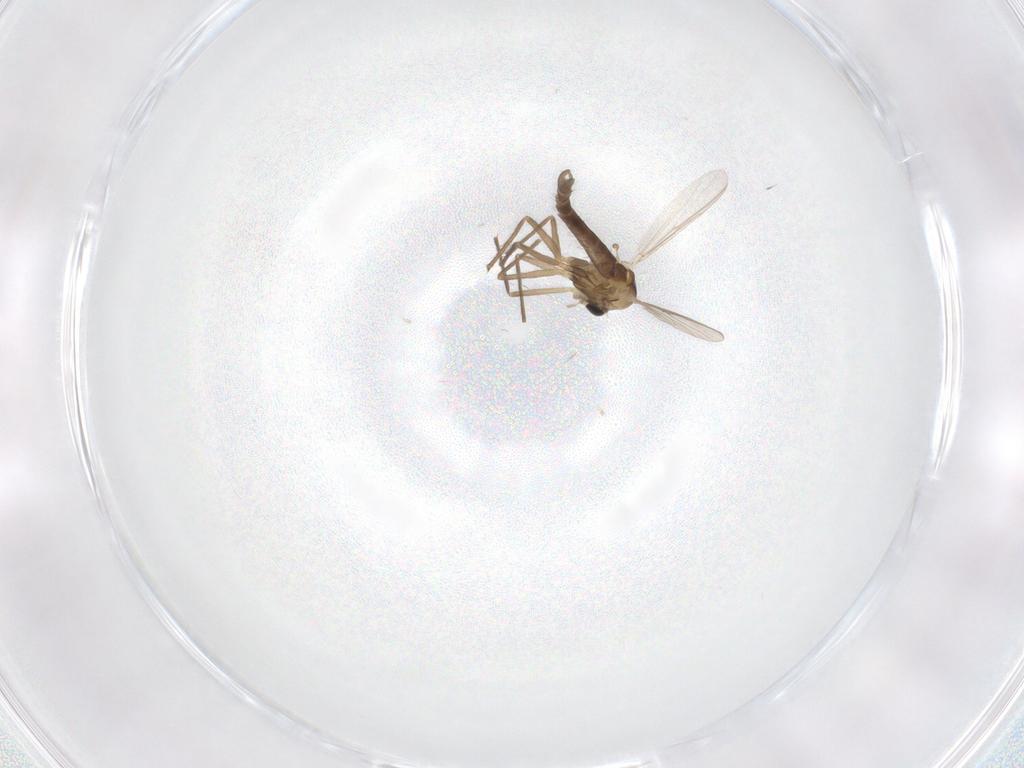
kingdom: Animalia
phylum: Arthropoda
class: Insecta
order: Diptera
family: Chironomidae
